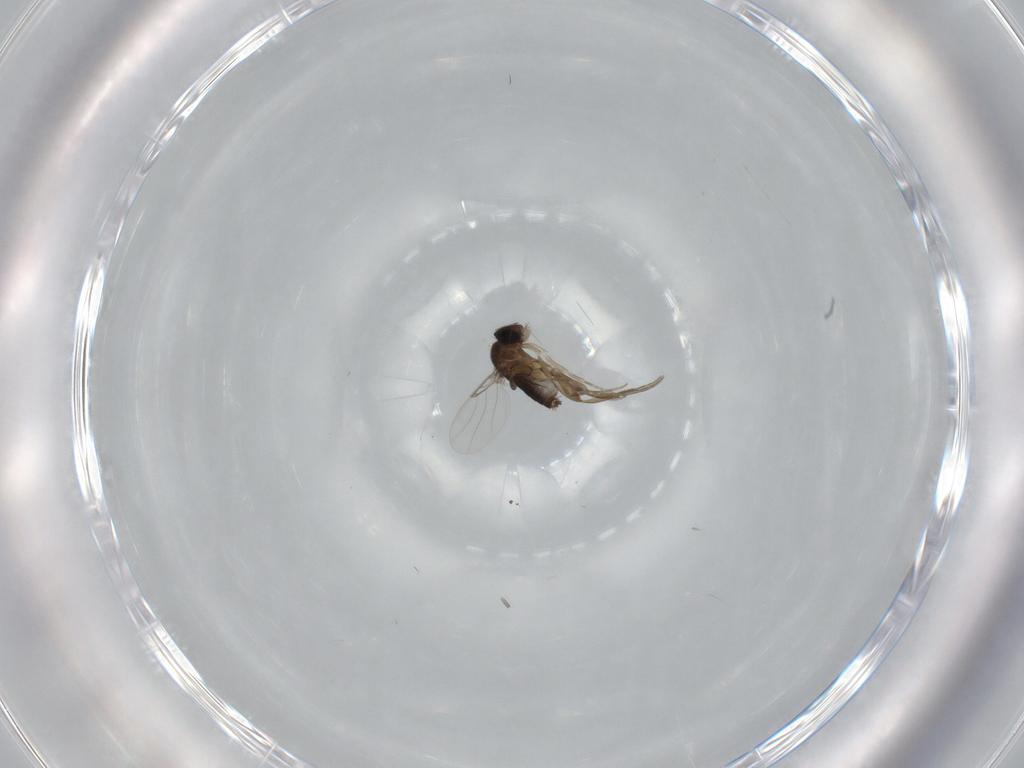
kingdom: Animalia
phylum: Arthropoda
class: Insecta
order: Diptera
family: Phoridae
